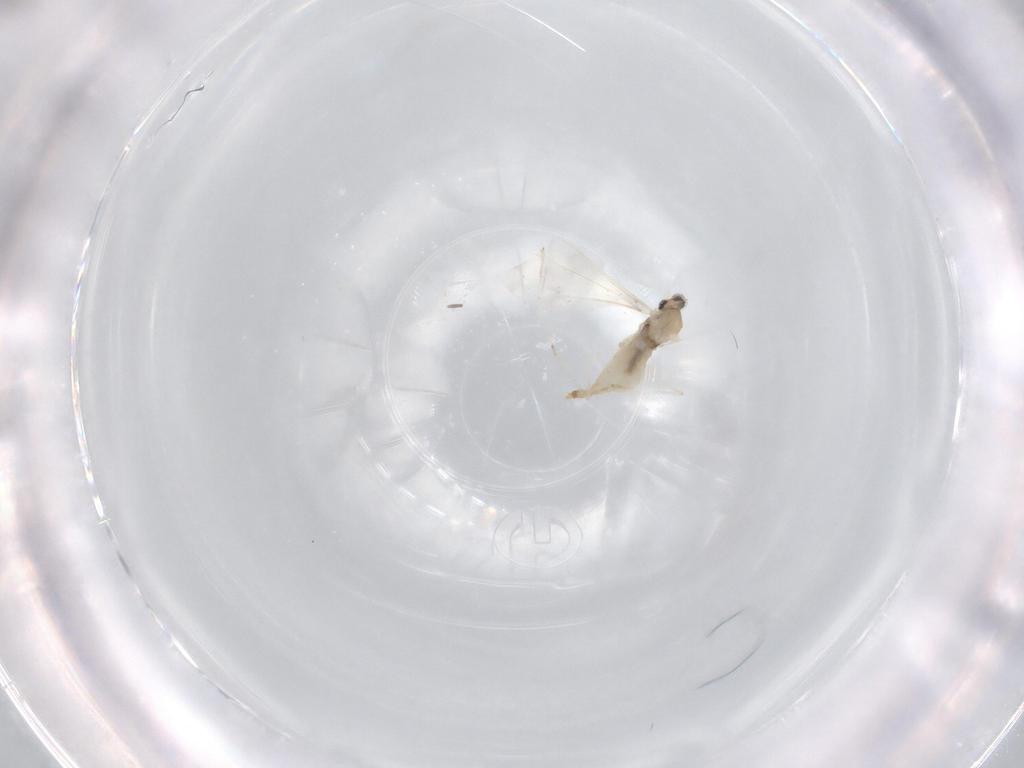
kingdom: Animalia
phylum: Arthropoda
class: Insecta
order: Diptera
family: Cecidomyiidae
